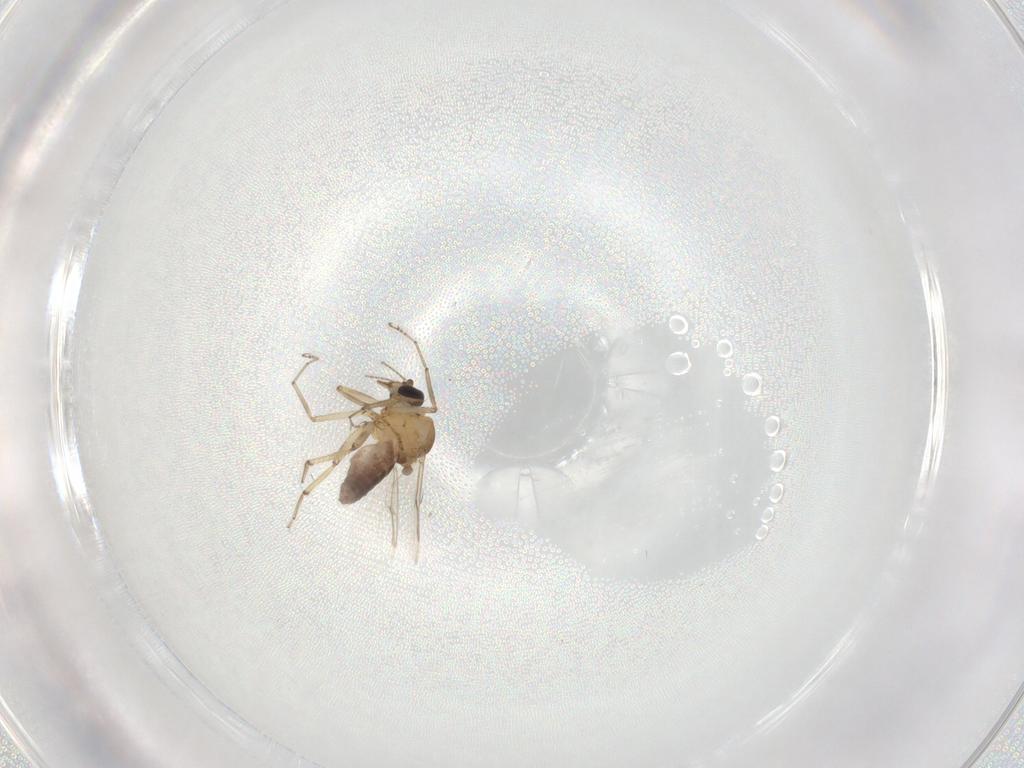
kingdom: Animalia
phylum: Arthropoda
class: Insecta
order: Diptera
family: Ceratopogonidae
